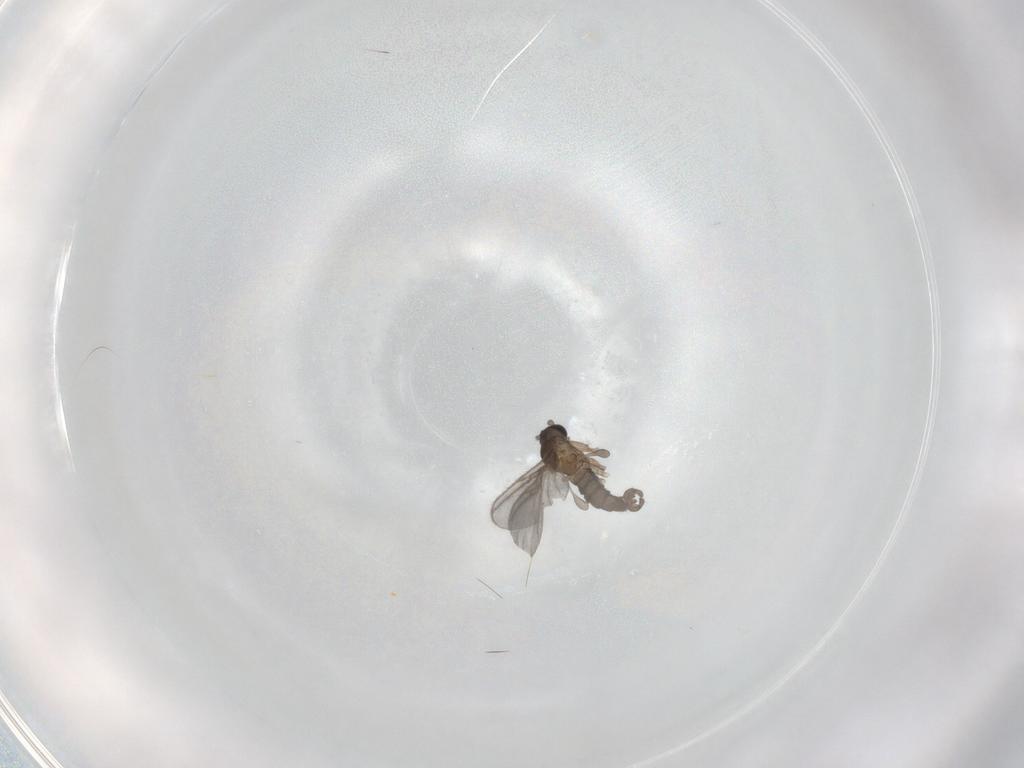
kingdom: Animalia
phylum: Arthropoda
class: Insecta
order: Diptera
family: Sciaridae
